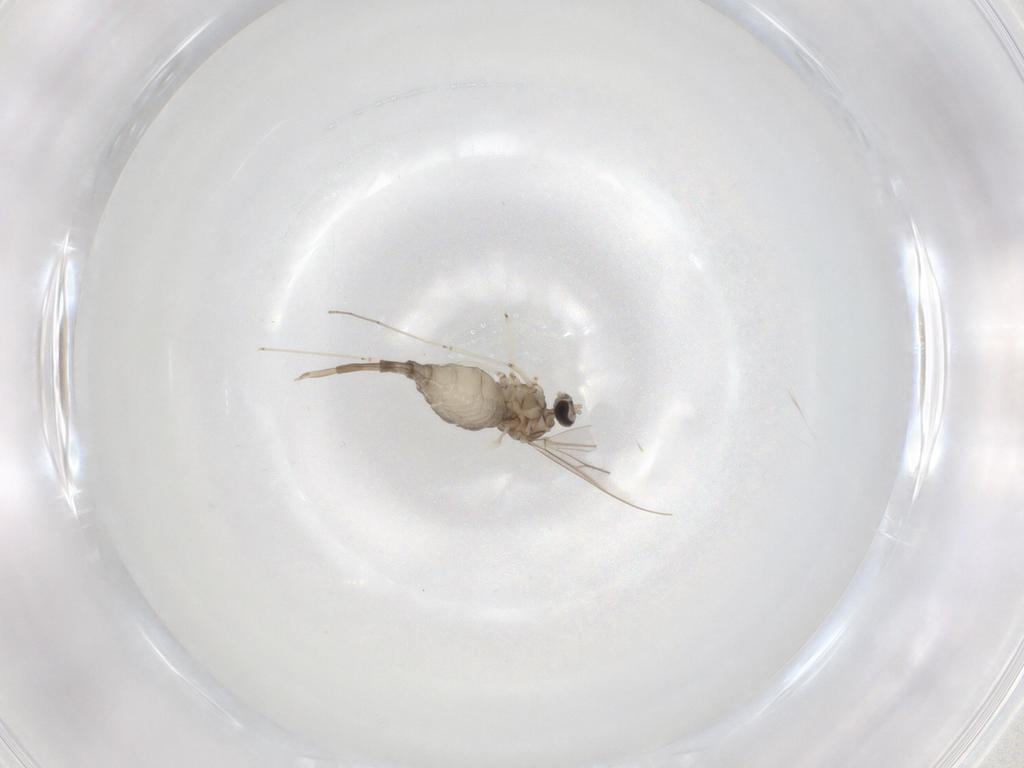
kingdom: Animalia
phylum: Arthropoda
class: Insecta
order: Diptera
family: Cecidomyiidae
